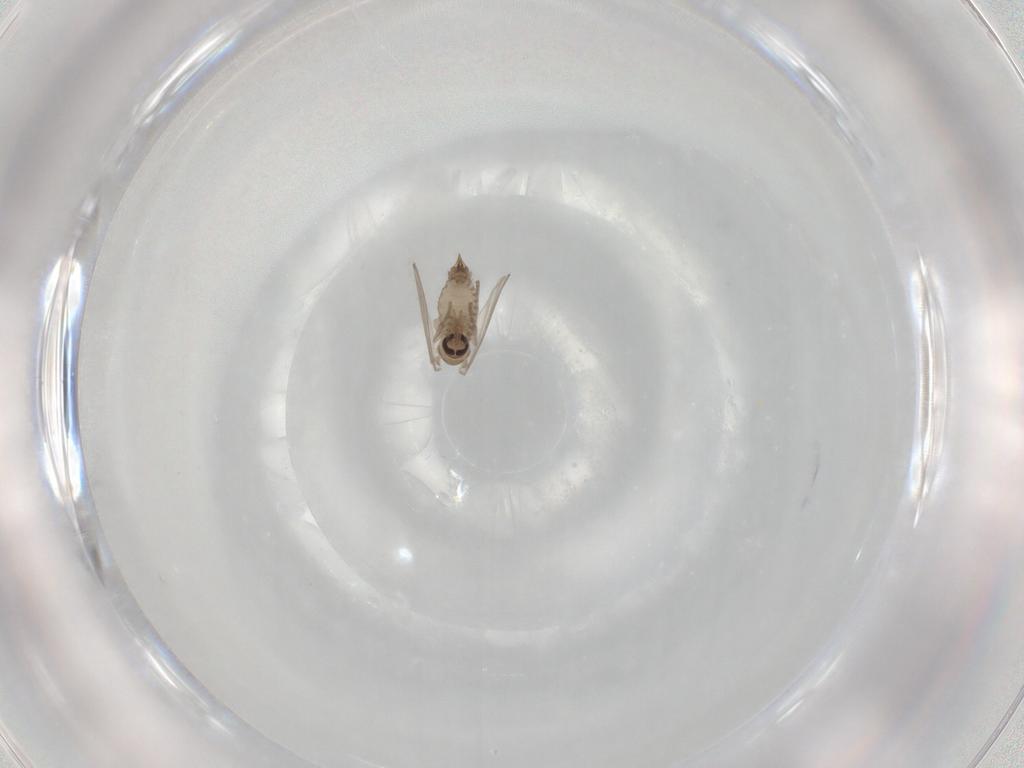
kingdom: Animalia
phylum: Arthropoda
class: Insecta
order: Diptera
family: Psychodidae
